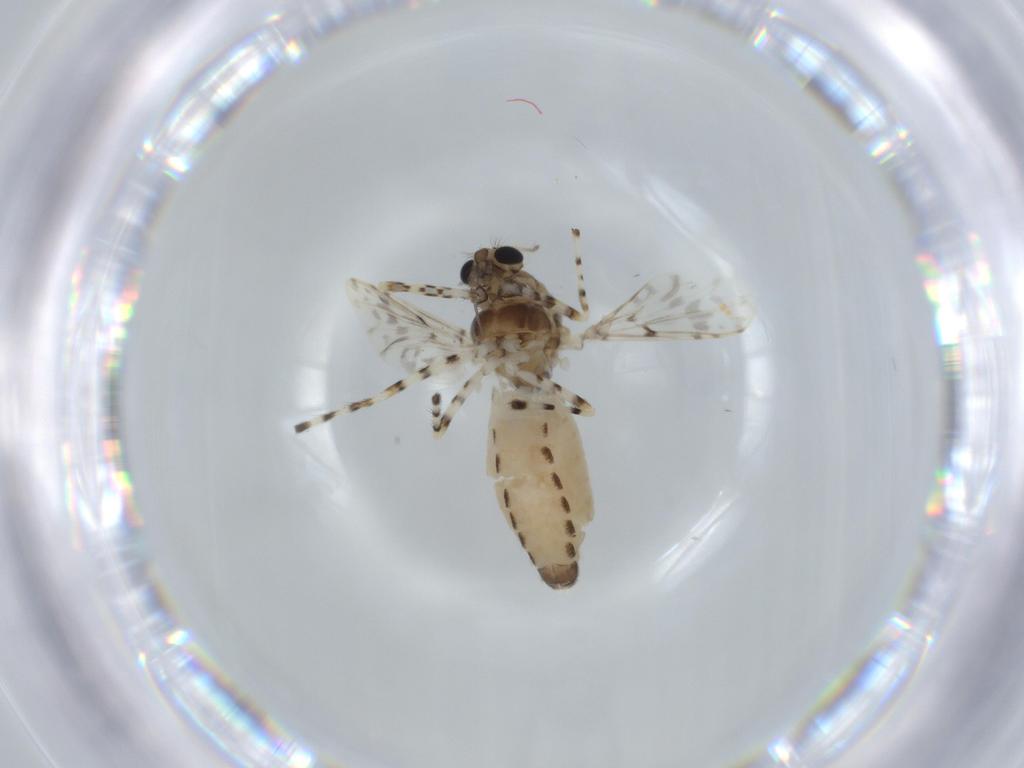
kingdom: Animalia
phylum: Arthropoda
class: Insecta
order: Diptera
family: Chironomidae
